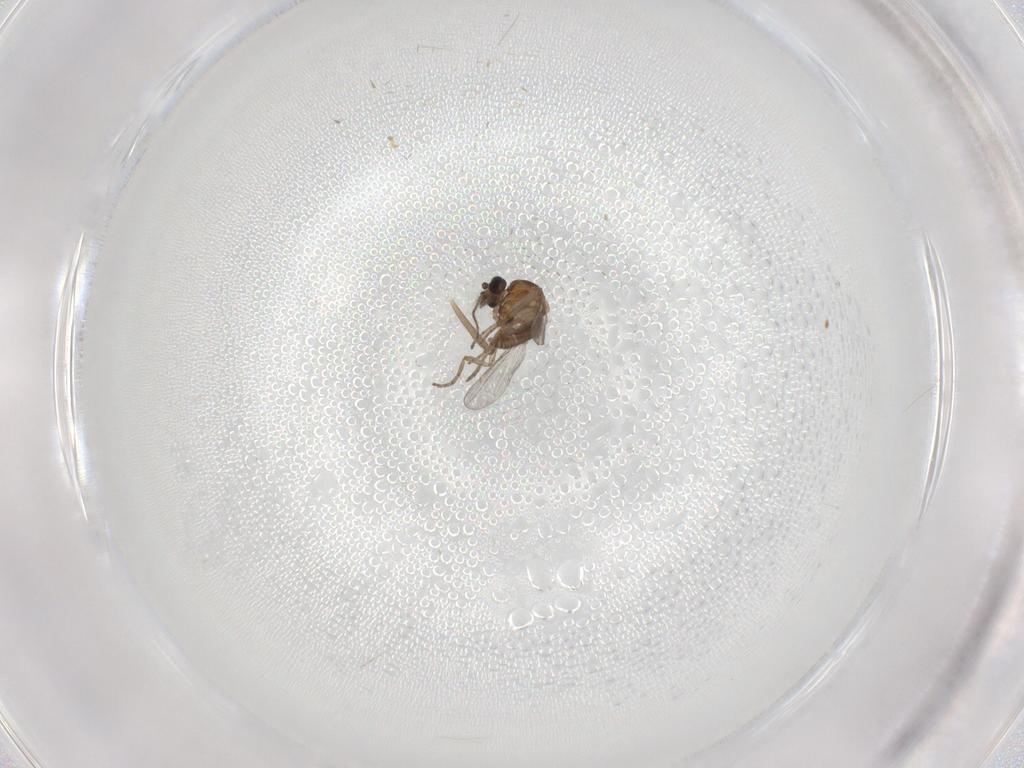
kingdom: Animalia
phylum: Arthropoda
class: Insecta
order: Diptera
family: Chironomidae
